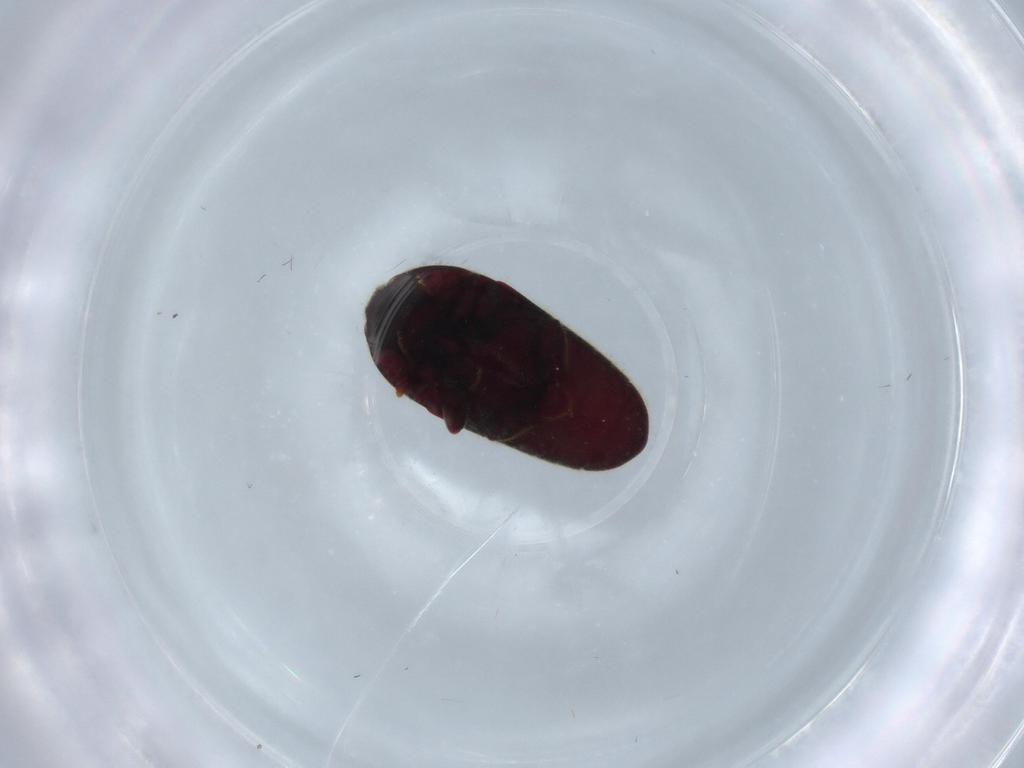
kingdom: Animalia
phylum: Arthropoda
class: Insecta
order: Coleoptera
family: Throscidae
